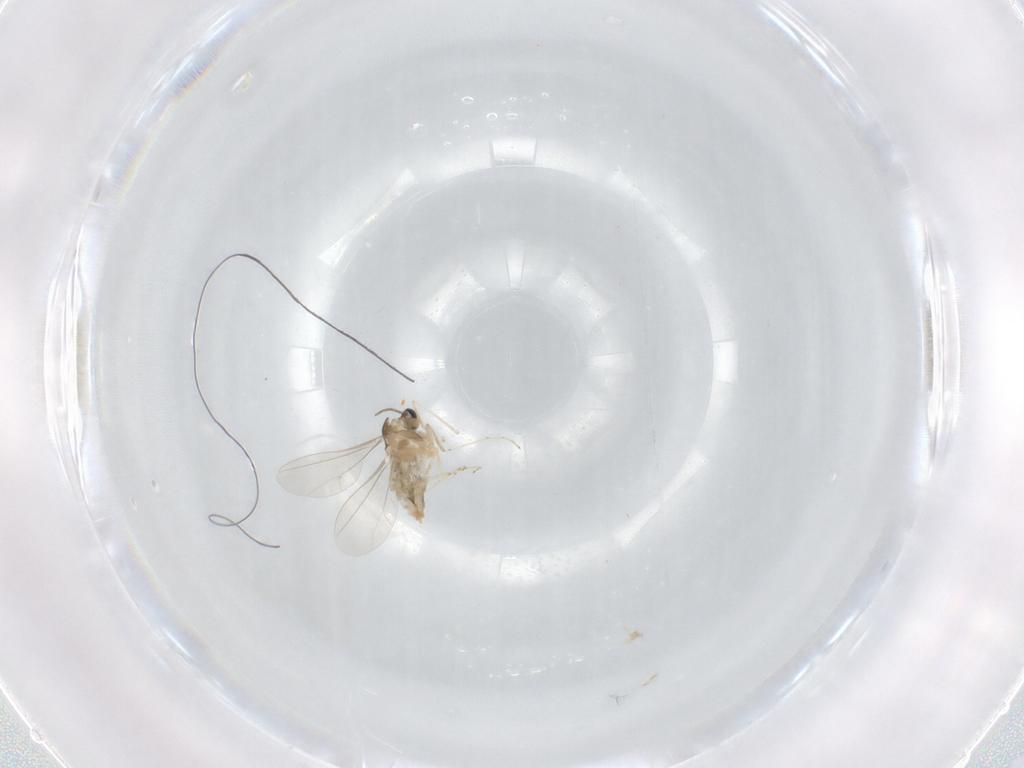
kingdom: Animalia
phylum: Arthropoda
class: Insecta
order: Diptera
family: Cecidomyiidae
